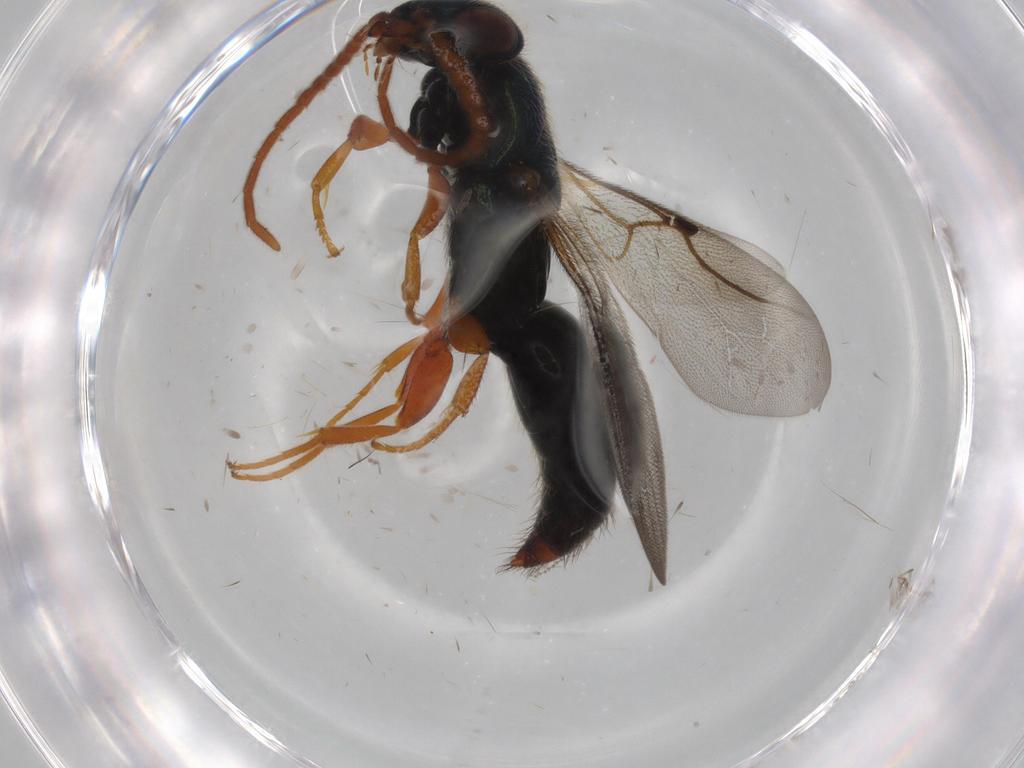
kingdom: Animalia
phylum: Arthropoda
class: Insecta
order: Hymenoptera
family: Bethylidae
